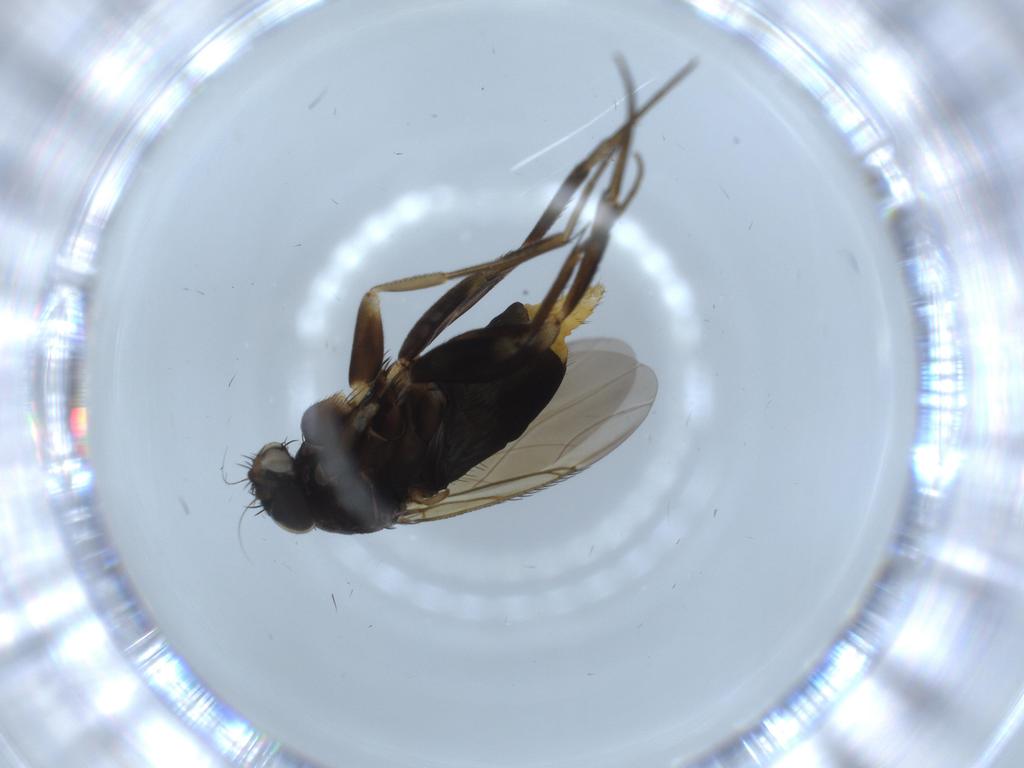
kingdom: Animalia
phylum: Arthropoda
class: Insecta
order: Diptera
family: Phoridae
